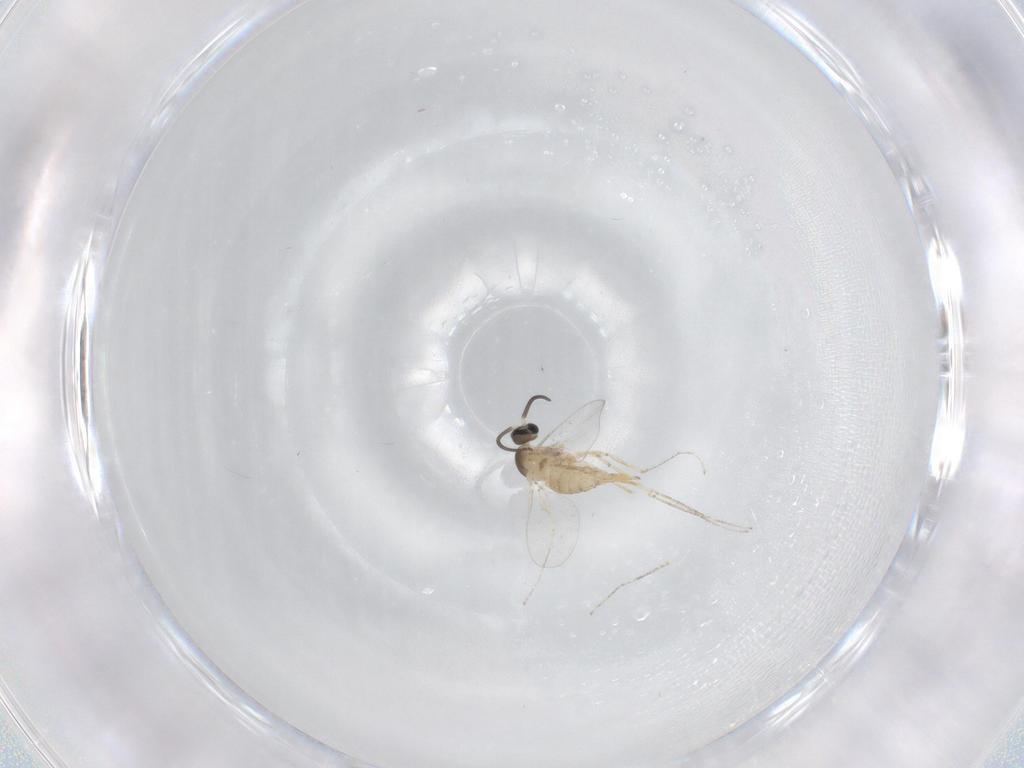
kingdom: Animalia
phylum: Arthropoda
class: Insecta
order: Diptera
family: Cecidomyiidae
